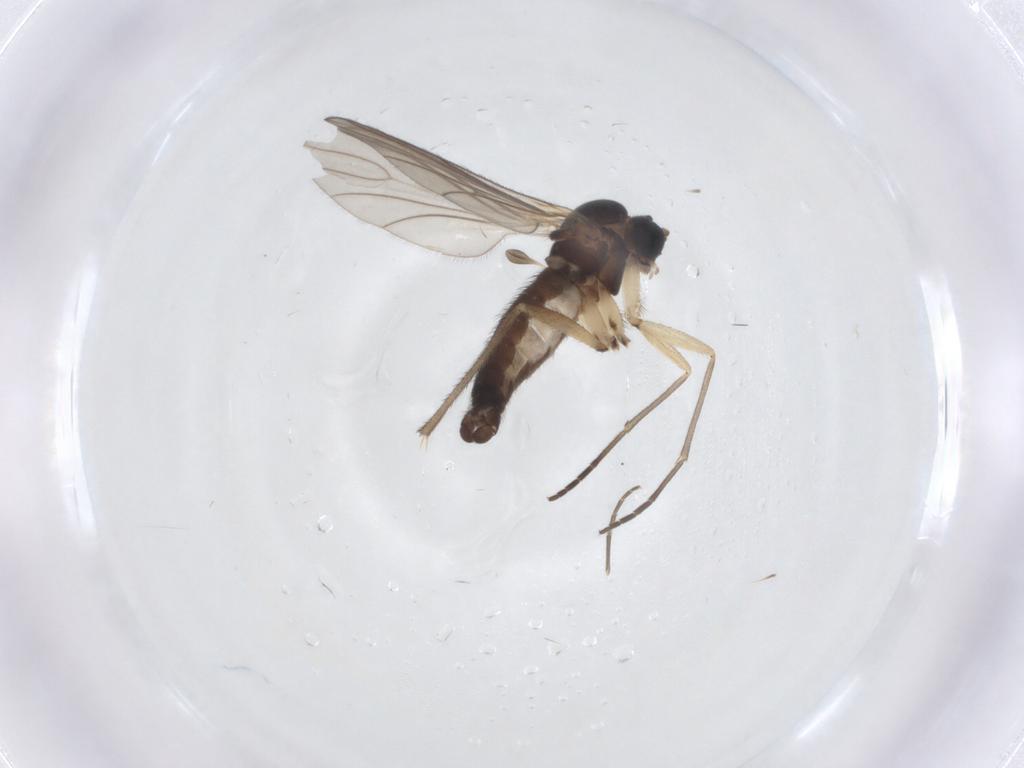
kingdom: Animalia
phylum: Arthropoda
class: Insecta
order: Diptera
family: Sciaridae
